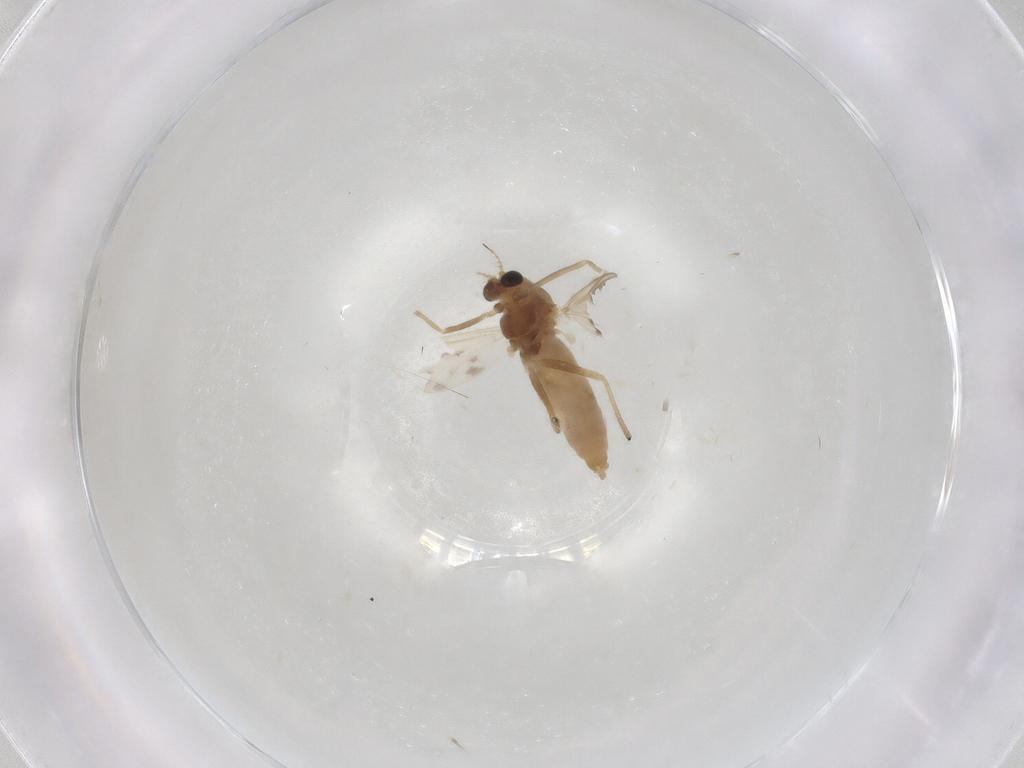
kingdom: Animalia
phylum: Arthropoda
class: Insecta
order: Diptera
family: Chironomidae
